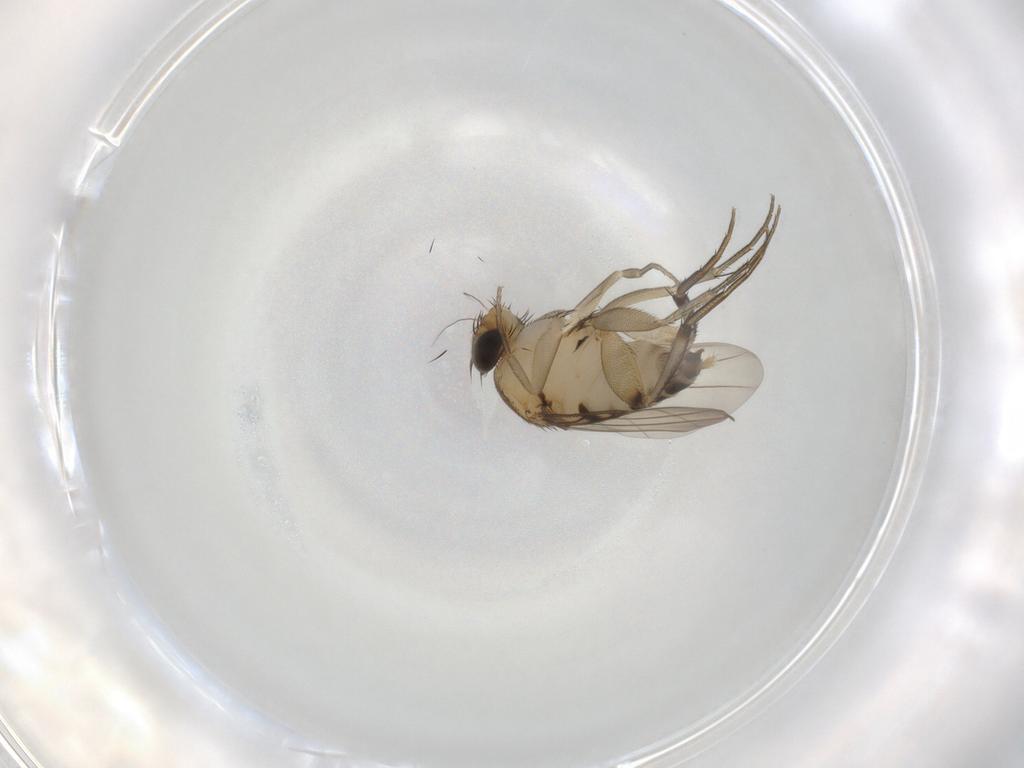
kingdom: Animalia
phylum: Arthropoda
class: Insecta
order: Diptera
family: Phoridae
